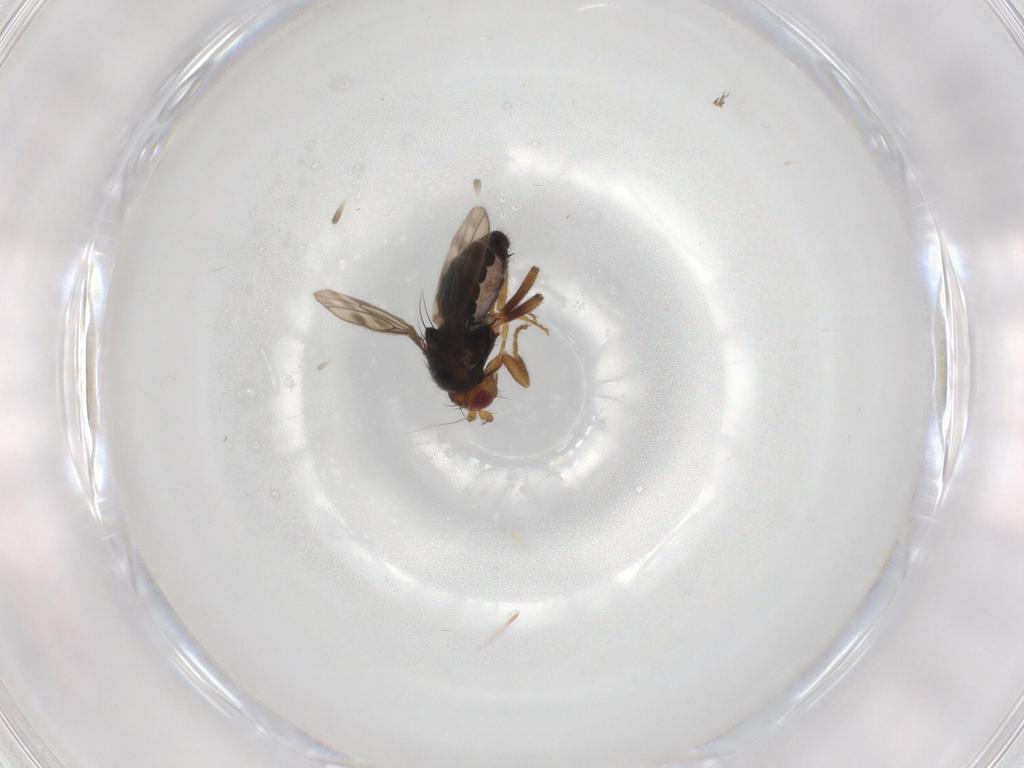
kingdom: Animalia
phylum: Arthropoda
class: Insecta
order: Diptera
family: Sphaeroceridae
